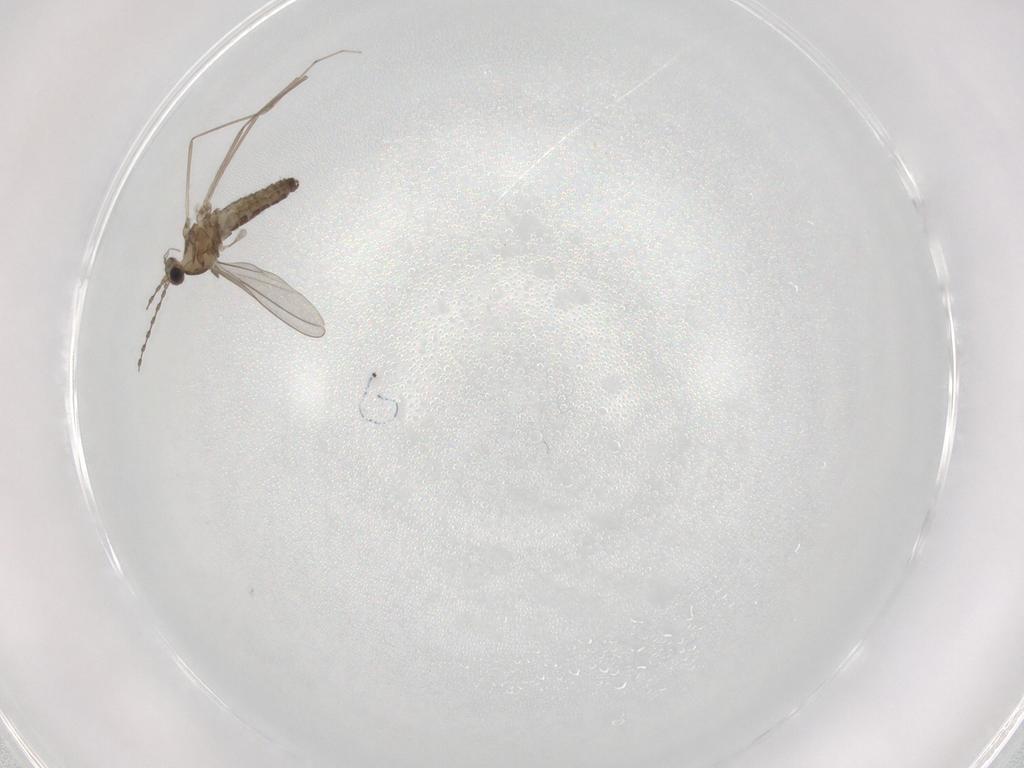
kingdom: Animalia
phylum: Arthropoda
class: Insecta
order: Diptera
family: Cecidomyiidae
